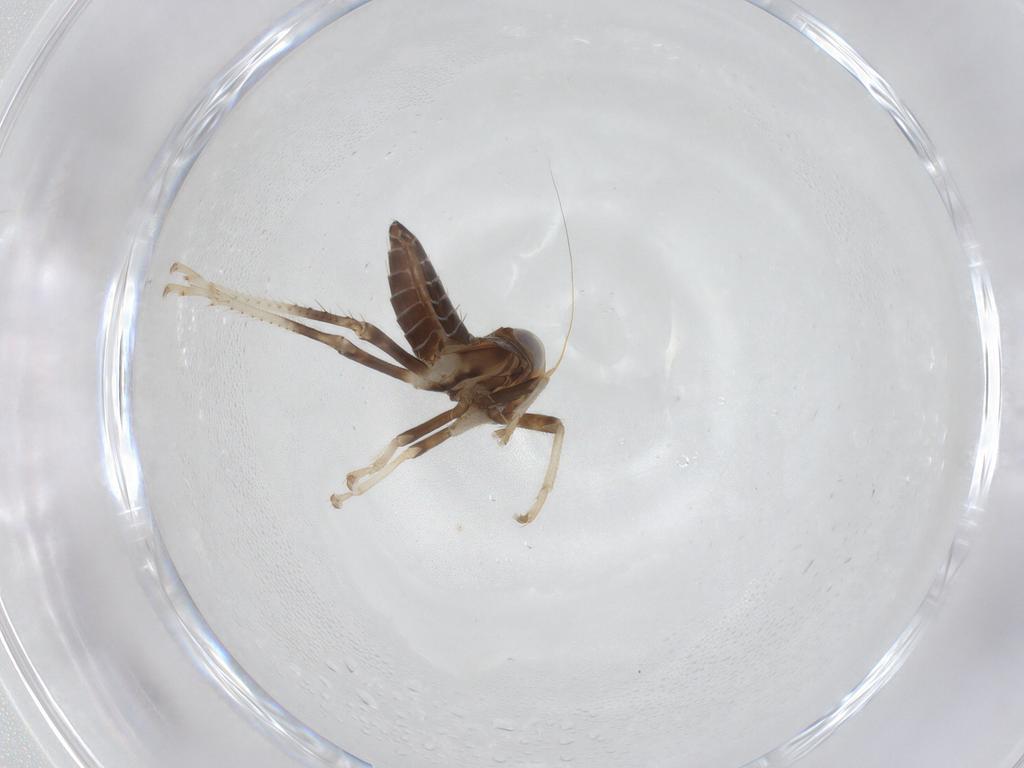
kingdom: Animalia
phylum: Arthropoda
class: Insecta
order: Hemiptera
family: Cicadellidae
